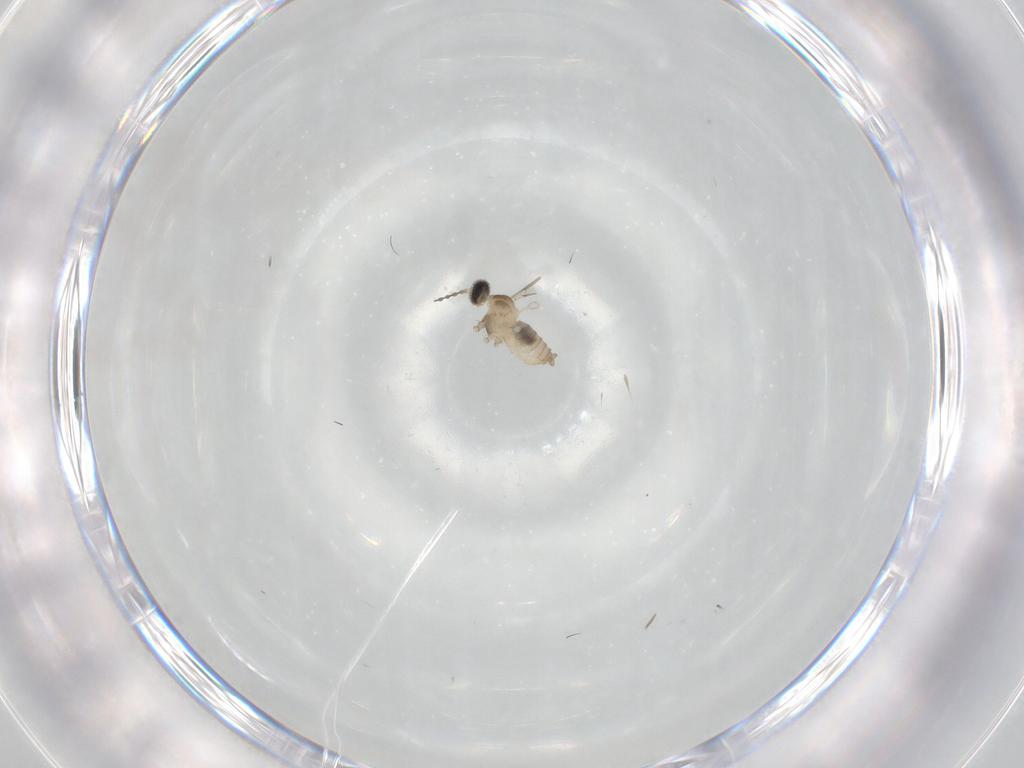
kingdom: Animalia
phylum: Arthropoda
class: Insecta
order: Diptera
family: Cecidomyiidae
